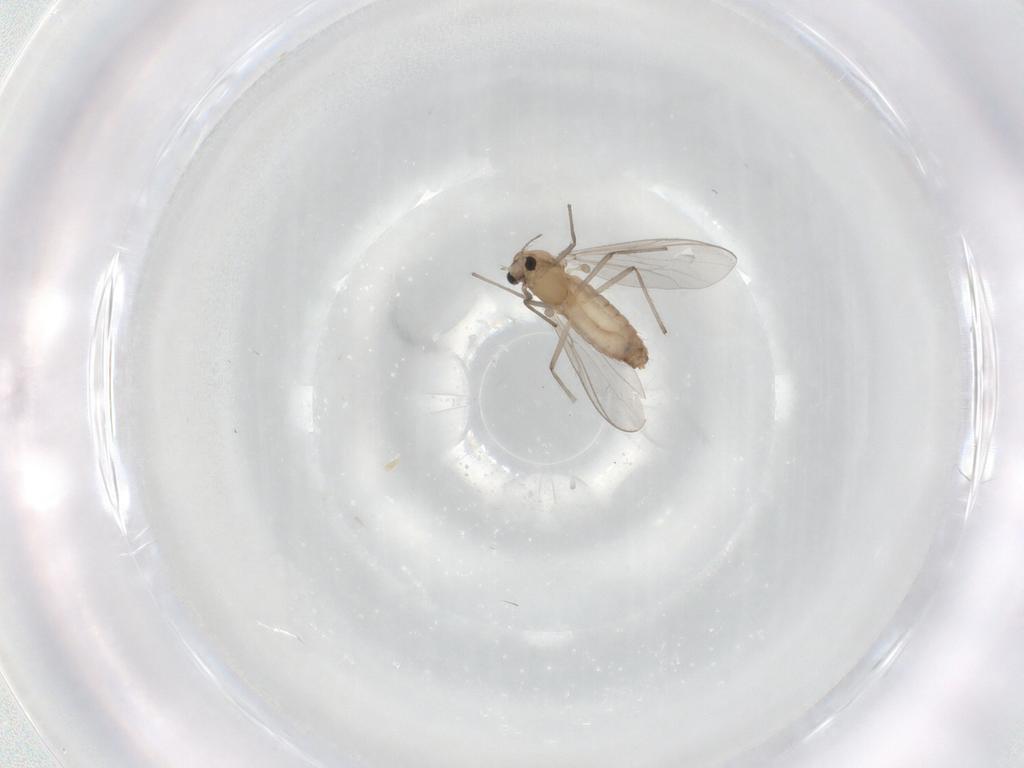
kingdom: Animalia
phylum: Arthropoda
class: Insecta
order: Diptera
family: Chironomidae
